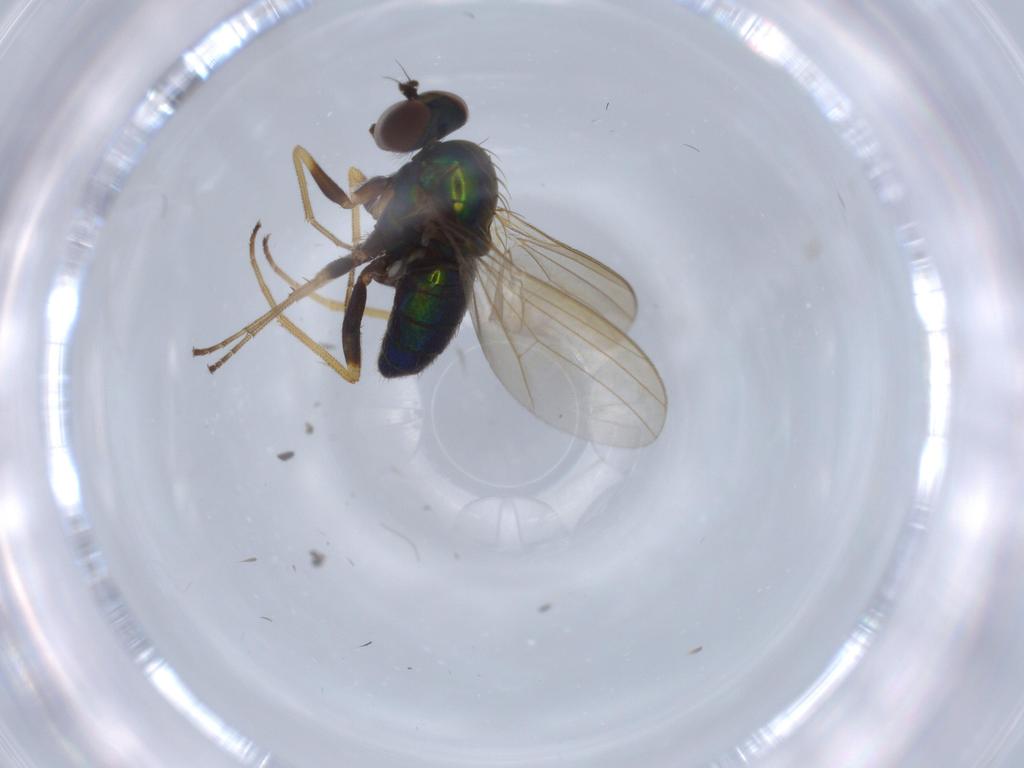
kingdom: Animalia
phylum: Arthropoda
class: Insecta
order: Diptera
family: Dolichopodidae
